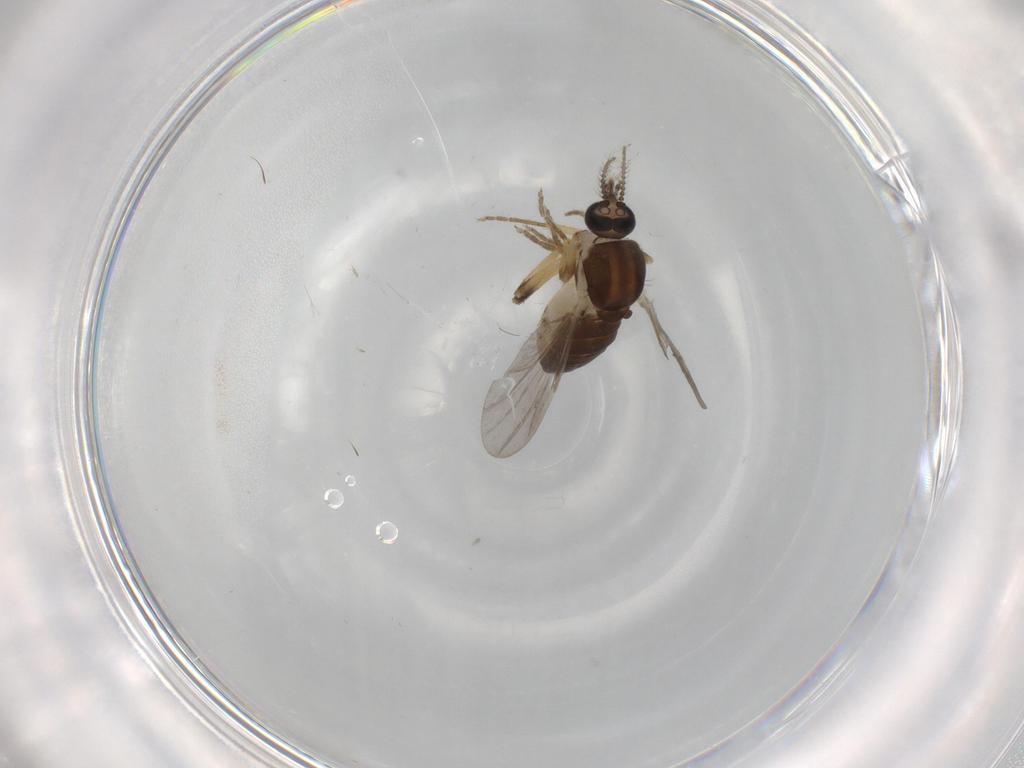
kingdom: Animalia
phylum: Arthropoda
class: Insecta
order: Diptera
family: Ceratopogonidae
